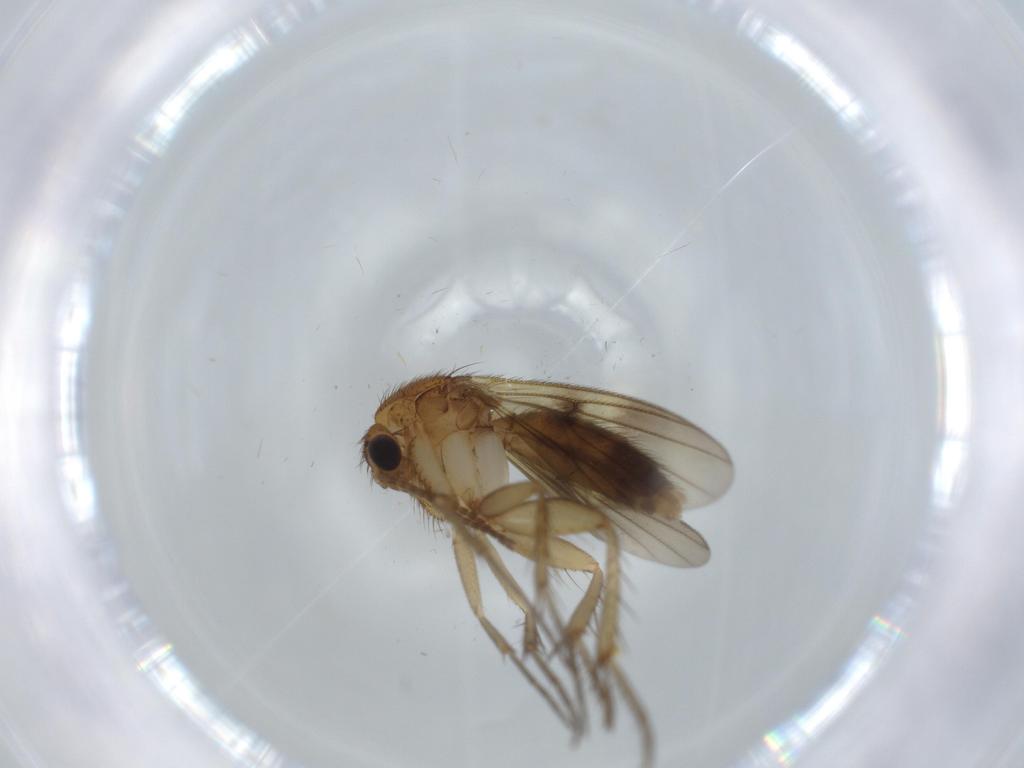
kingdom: Animalia
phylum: Arthropoda
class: Insecta
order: Diptera
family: Cecidomyiidae
